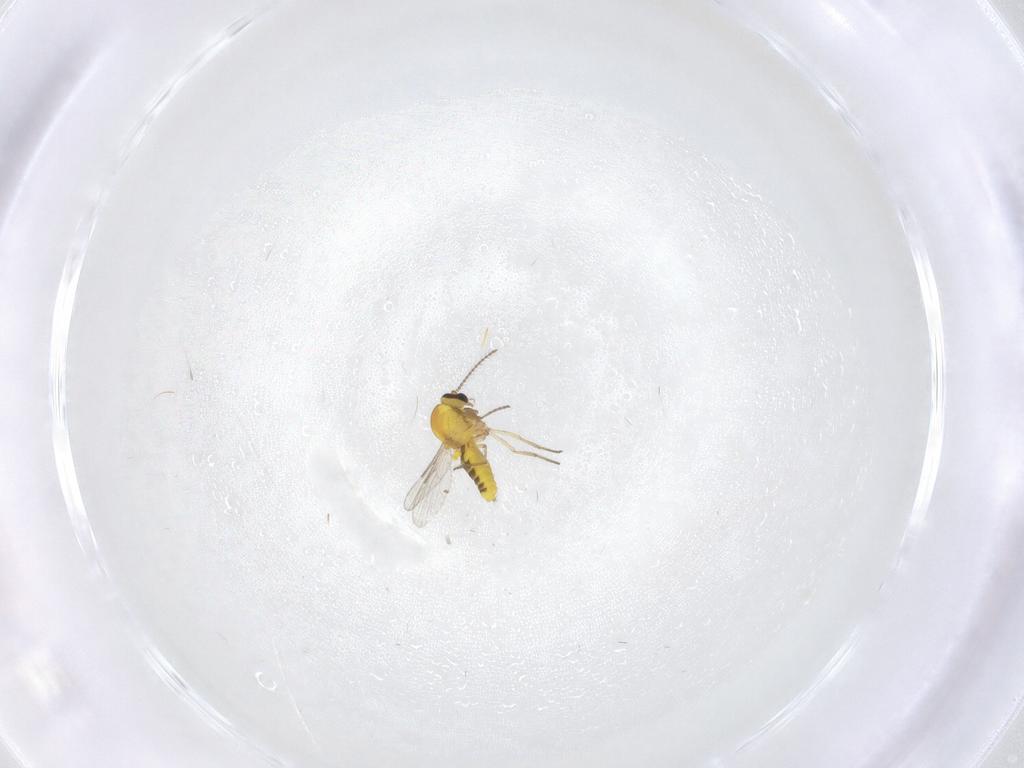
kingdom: Animalia
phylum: Arthropoda
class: Insecta
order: Diptera
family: Ceratopogonidae
